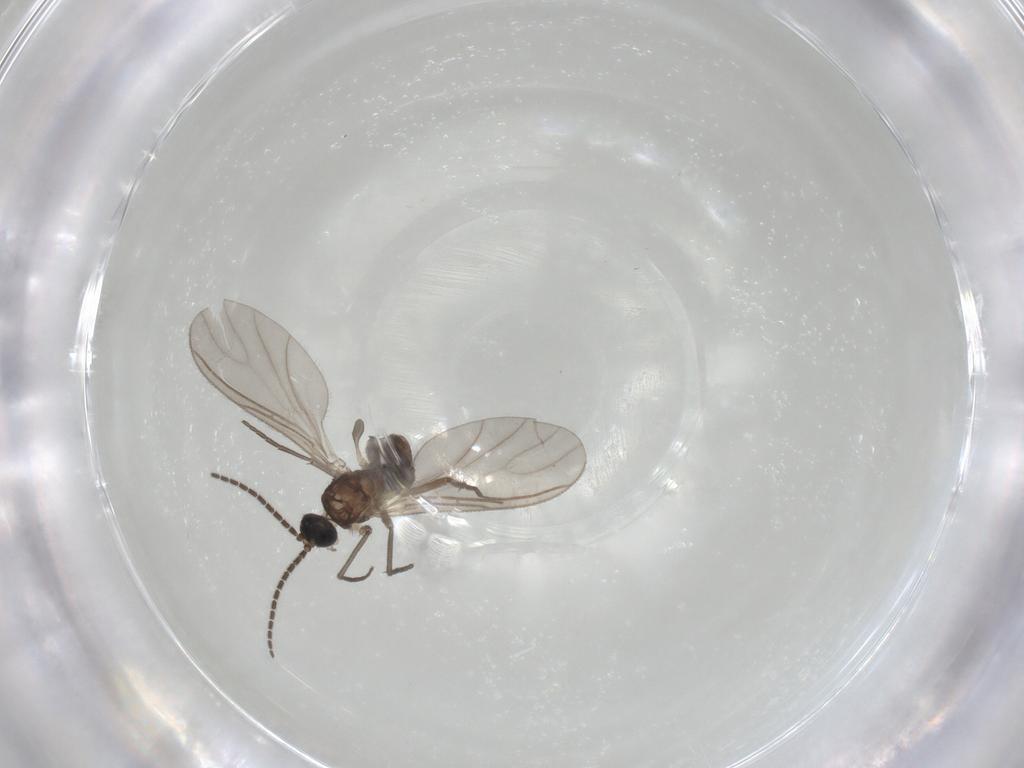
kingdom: Animalia
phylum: Arthropoda
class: Insecta
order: Diptera
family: Sciaridae
